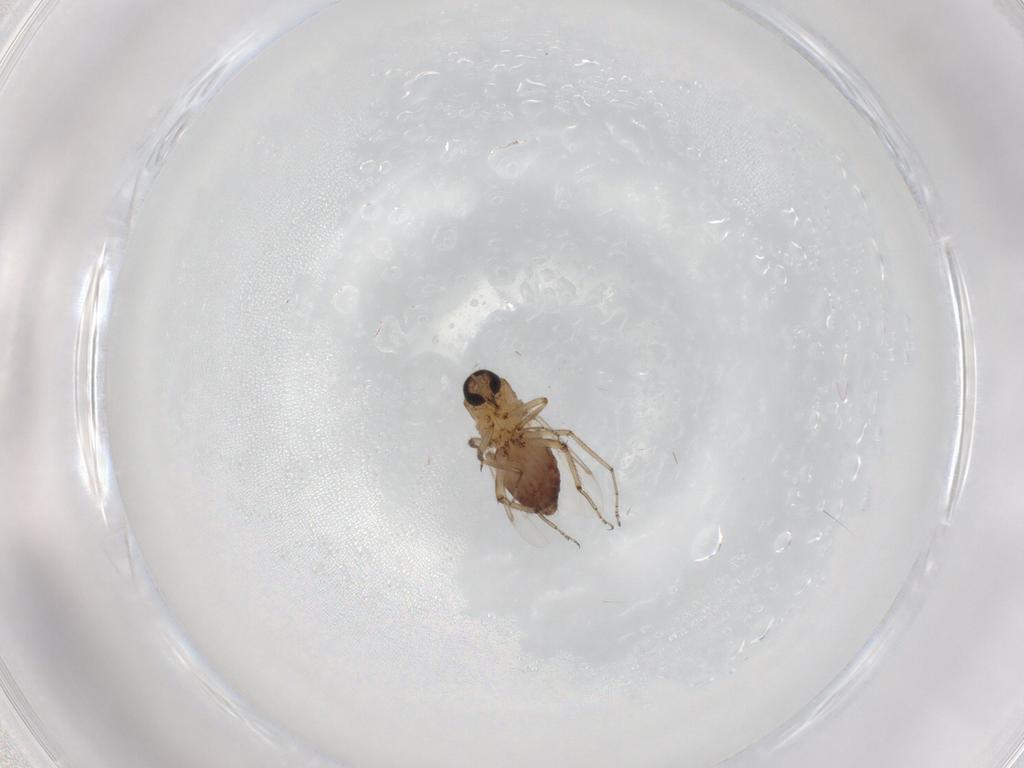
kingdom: Animalia
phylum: Arthropoda
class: Insecta
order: Diptera
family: Ceratopogonidae
